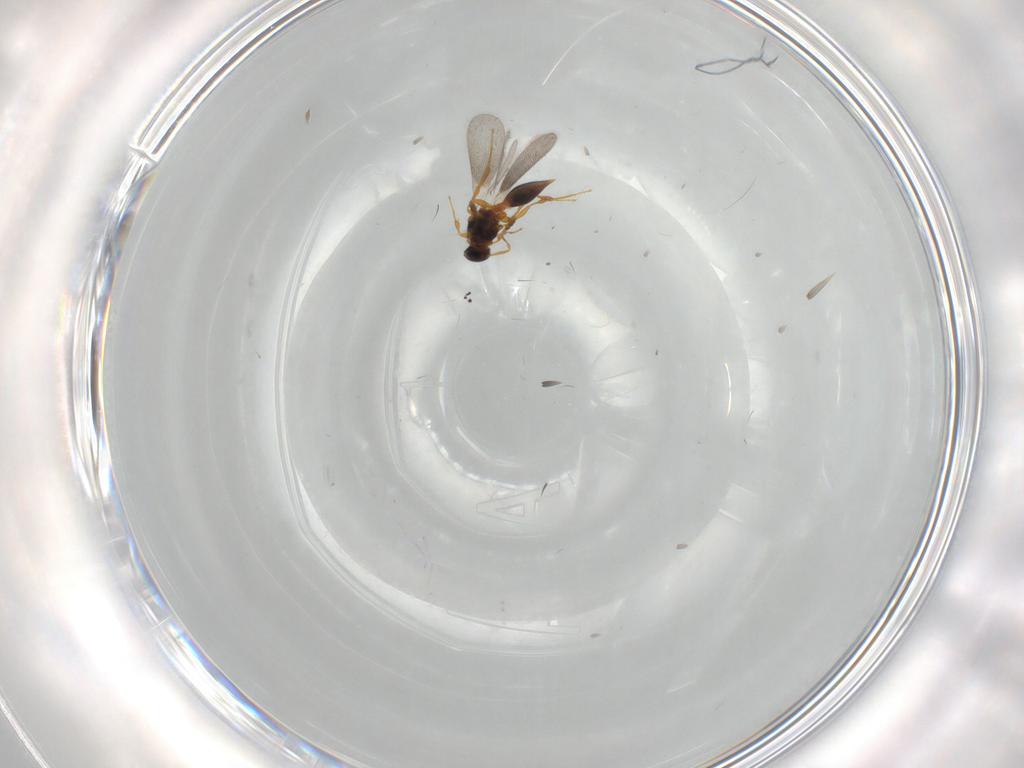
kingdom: Animalia
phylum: Arthropoda
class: Insecta
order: Hymenoptera
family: Platygastridae
